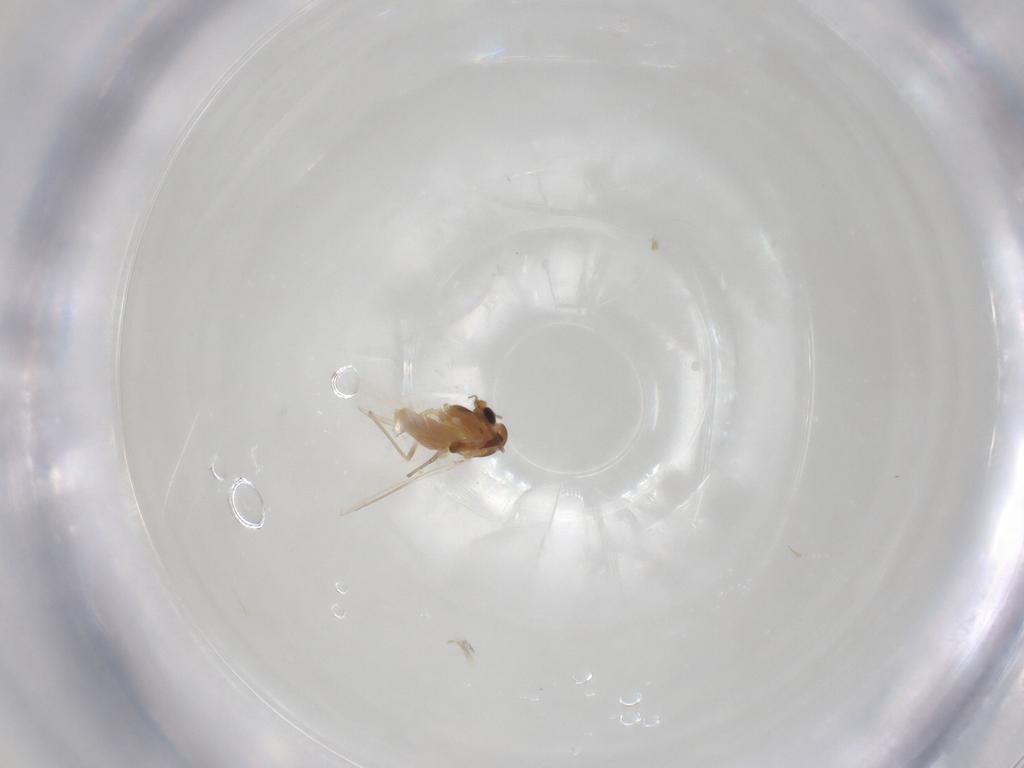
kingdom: Animalia
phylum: Arthropoda
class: Insecta
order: Diptera
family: Chironomidae
